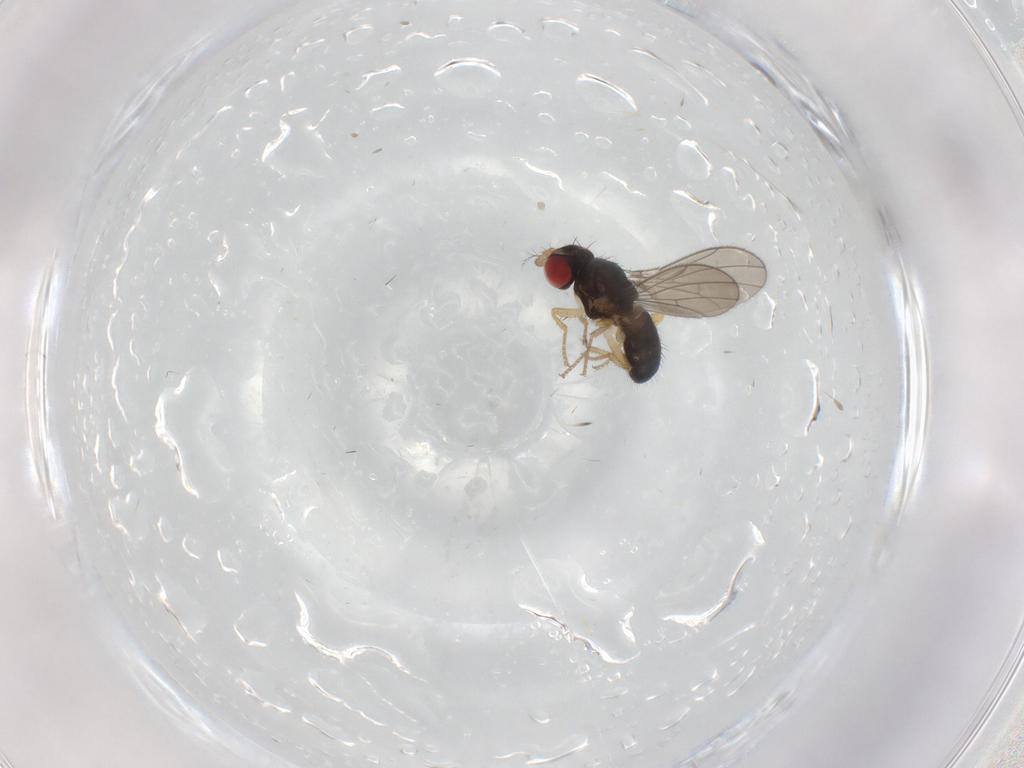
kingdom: Animalia
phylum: Arthropoda
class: Insecta
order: Diptera
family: Drosophilidae
